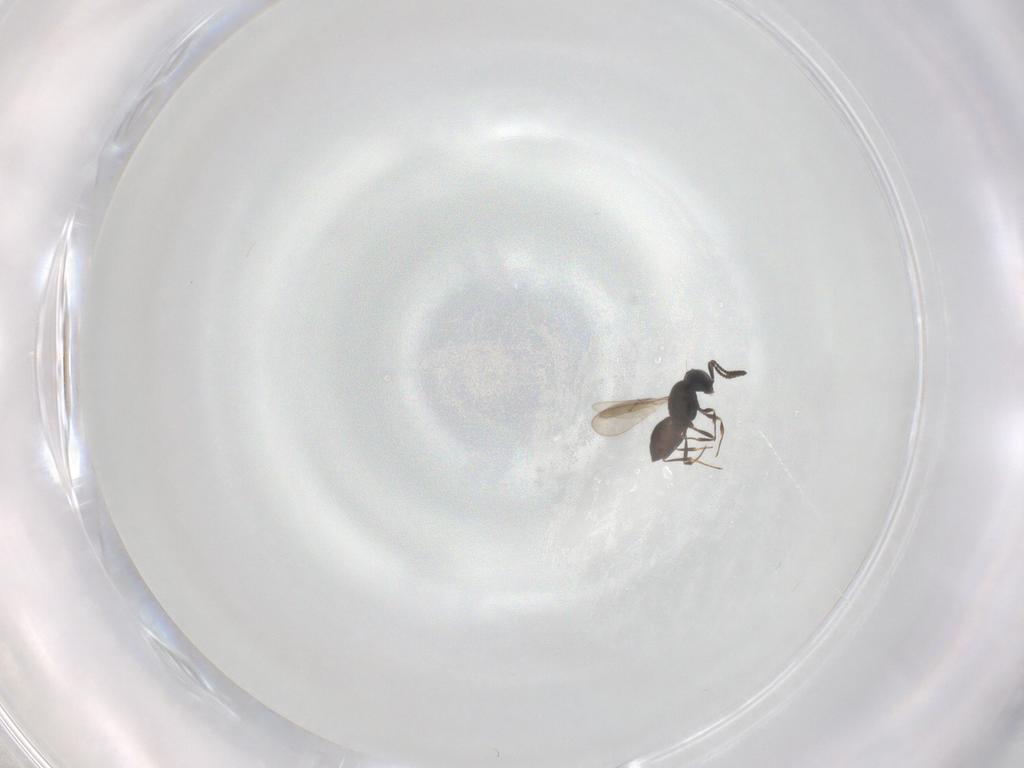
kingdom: Animalia
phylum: Arthropoda
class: Insecta
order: Hymenoptera
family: Scelionidae
